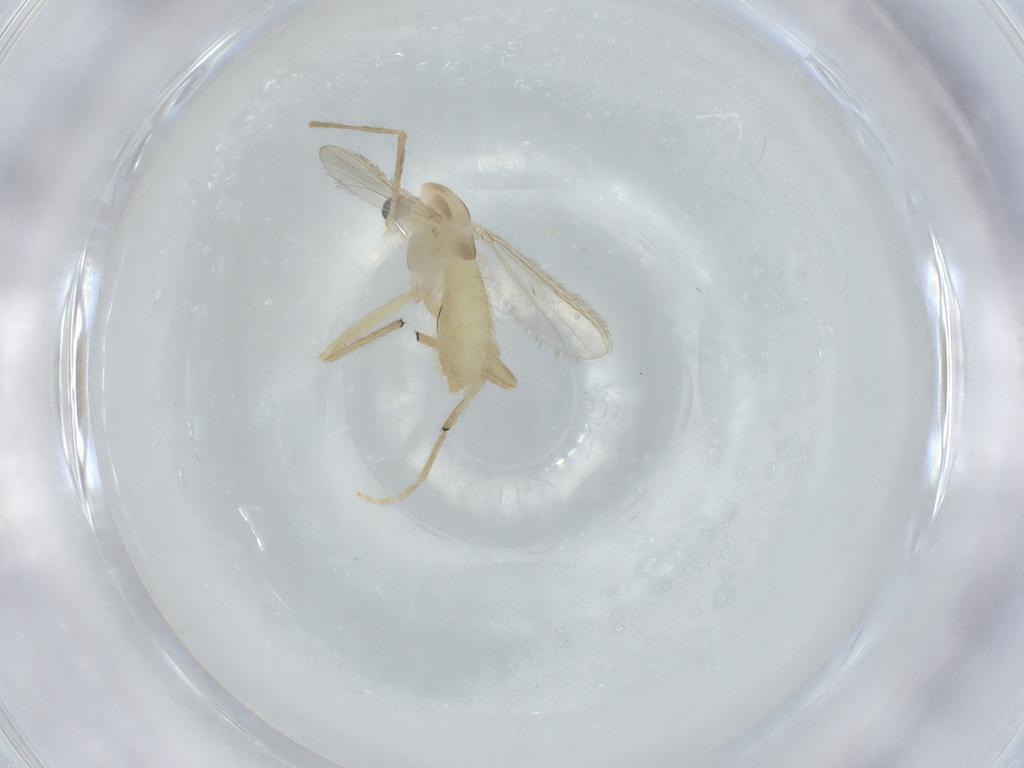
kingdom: Animalia
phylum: Arthropoda
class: Insecta
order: Diptera
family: Chironomidae
